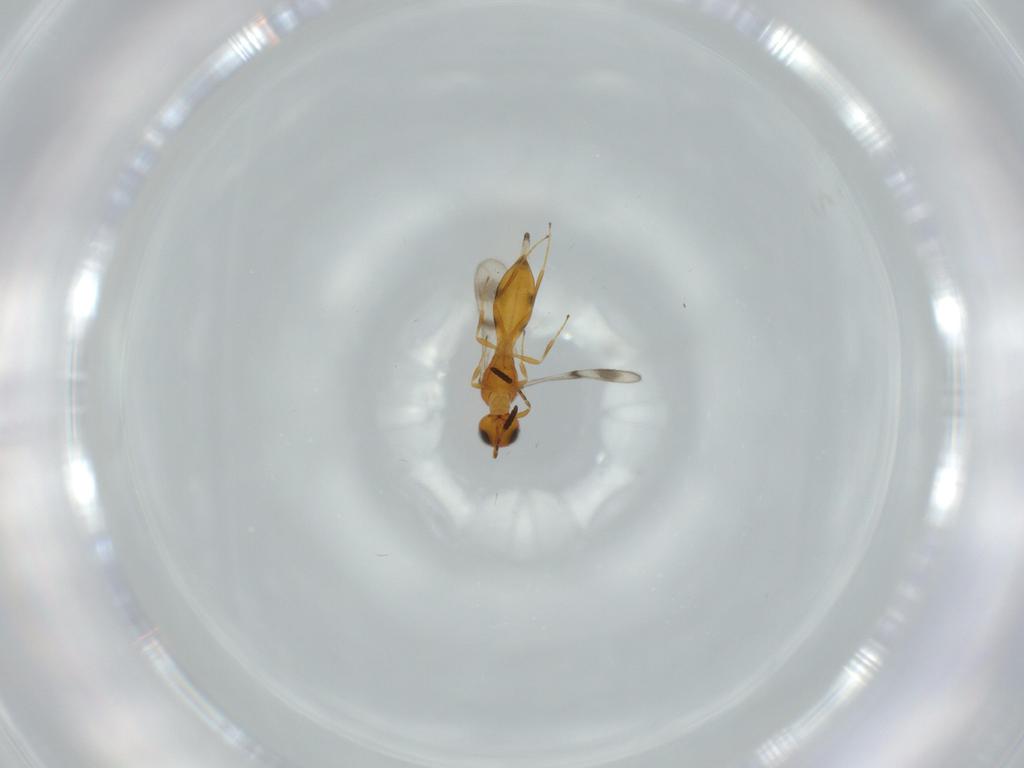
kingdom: Animalia
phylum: Arthropoda
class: Insecta
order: Hymenoptera
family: Scelionidae
